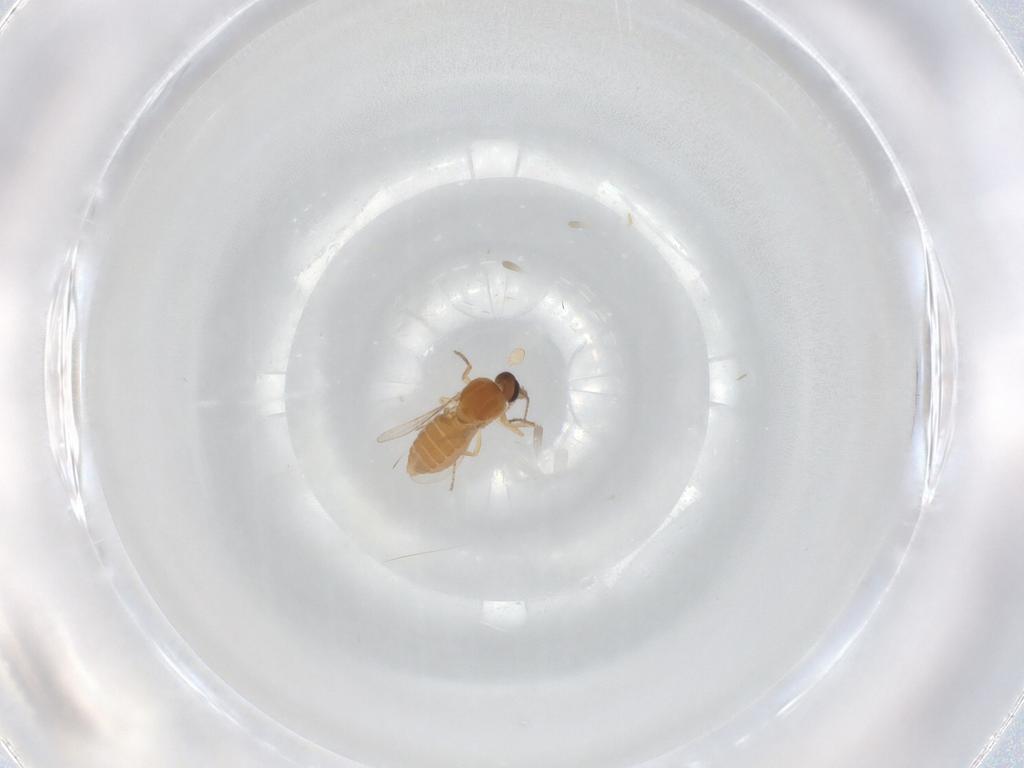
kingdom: Animalia
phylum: Arthropoda
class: Insecta
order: Diptera
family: Ceratopogonidae
